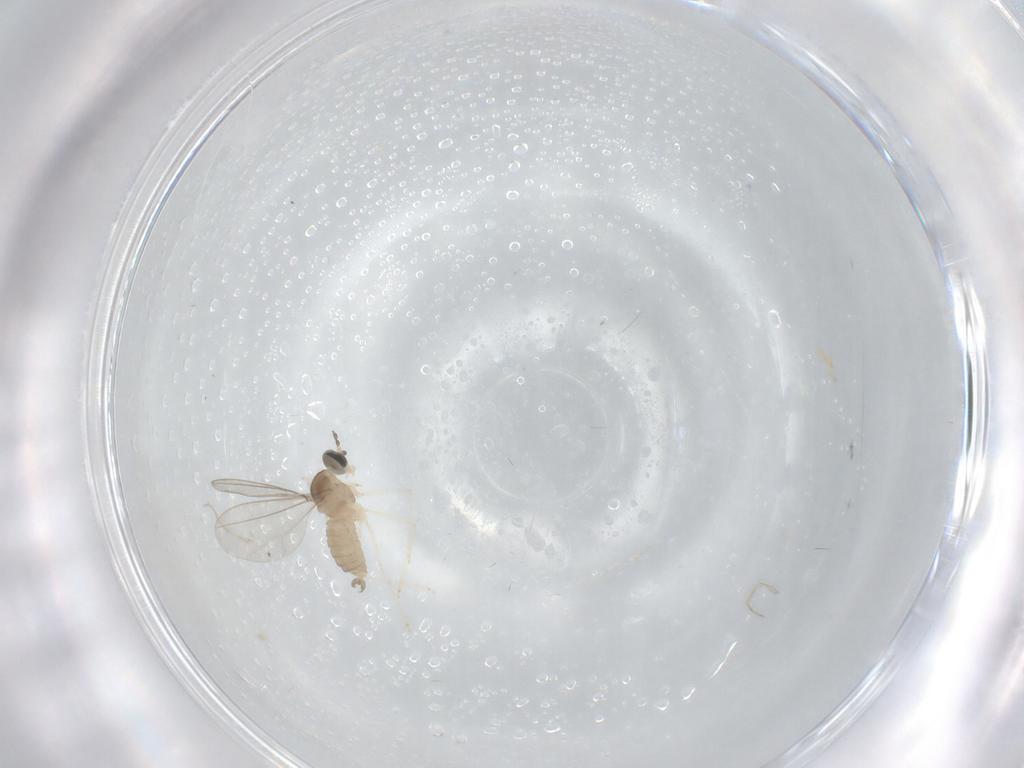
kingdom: Animalia
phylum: Arthropoda
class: Insecta
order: Diptera
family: Cecidomyiidae
